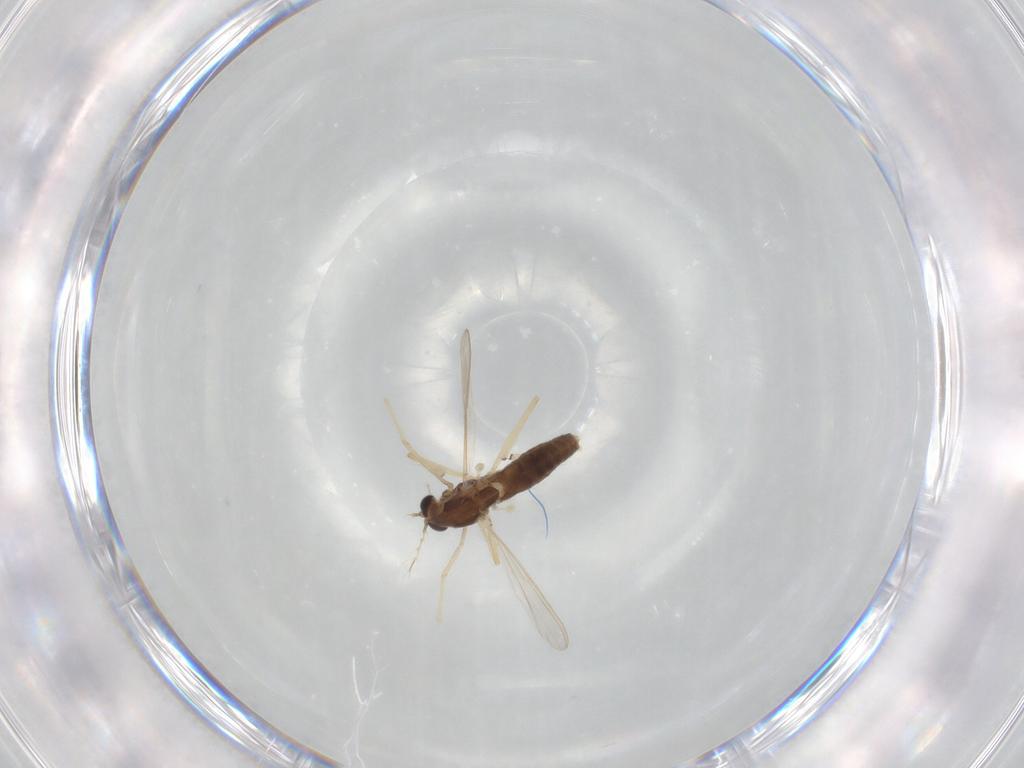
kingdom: Animalia
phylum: Arthropoda
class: Insecta
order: Diptera
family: Chironomidae
